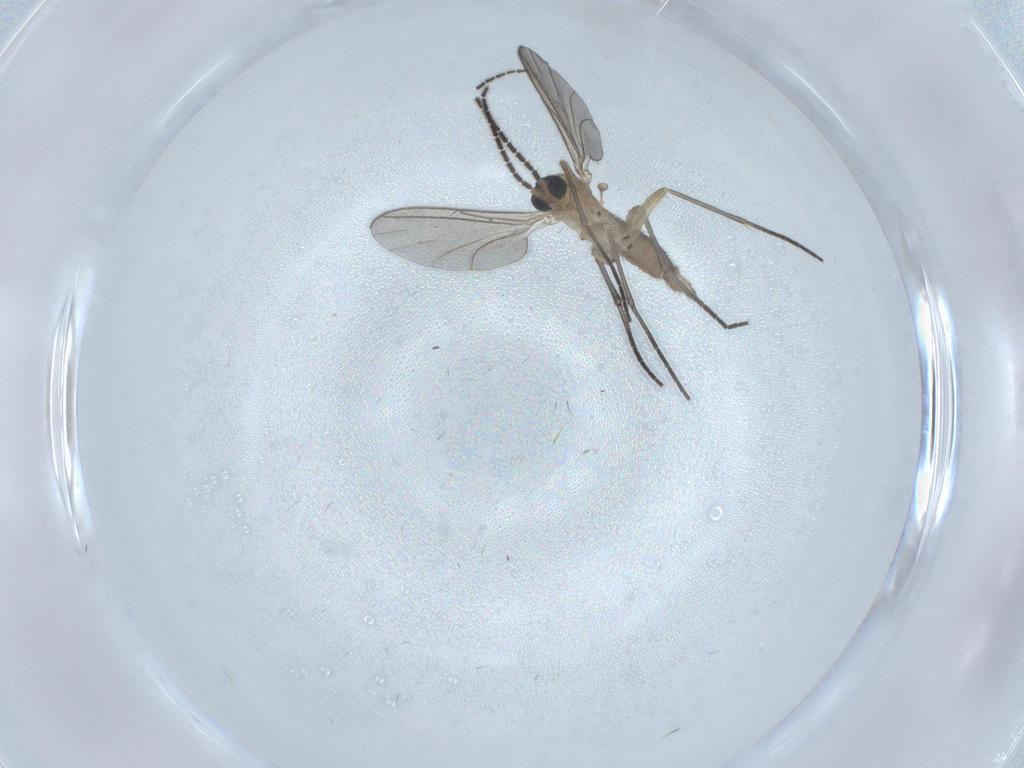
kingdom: Animalia
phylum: Arthropoda
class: Insecta
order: Diptera
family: Sciaridae
